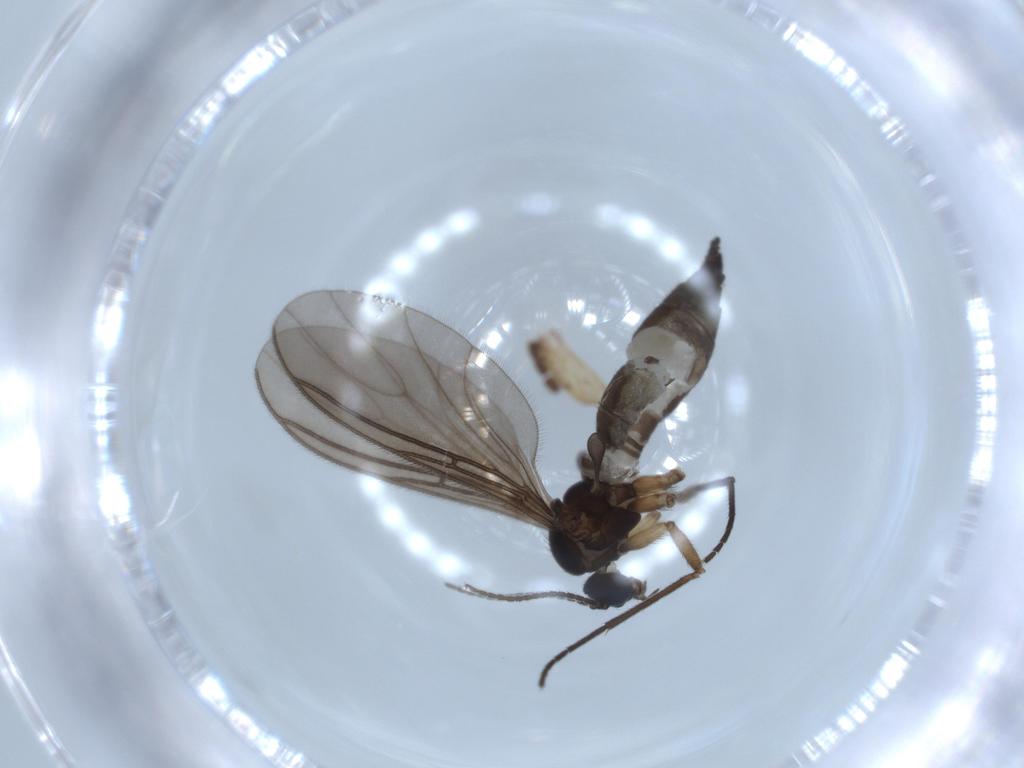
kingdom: Animalia
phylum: Arthropoda
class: Insecta
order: Diptera
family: Sciaridae
